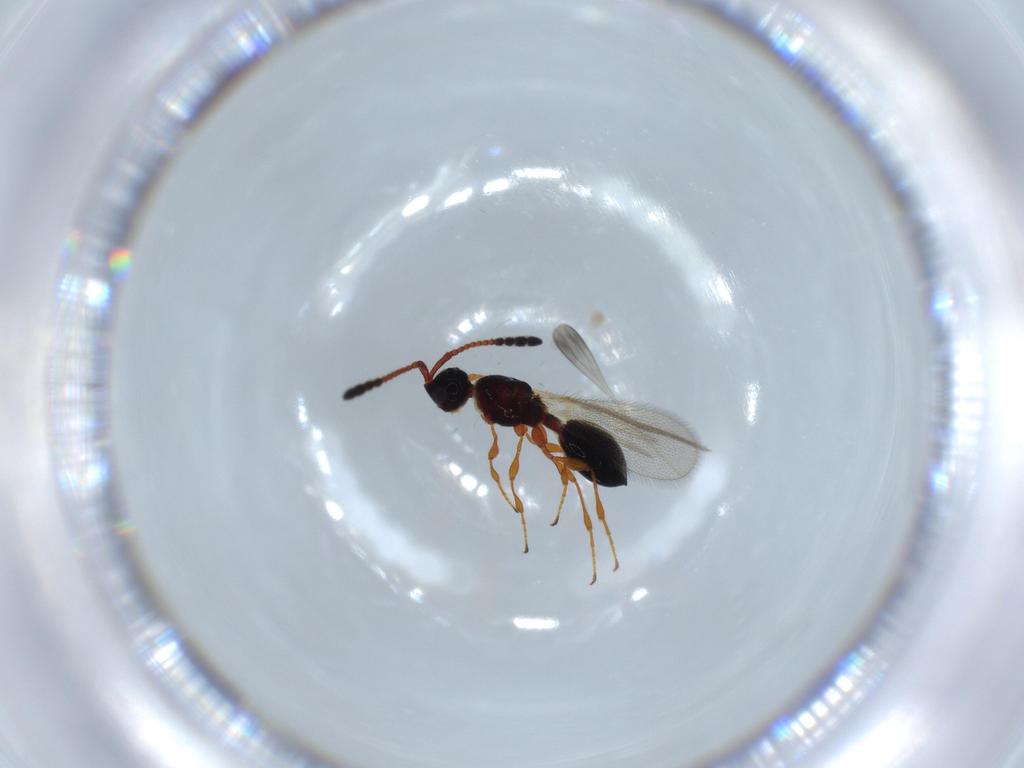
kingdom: Animalia
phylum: Arthropoda
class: Insecta
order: Hymenoptera
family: Diapriidae
